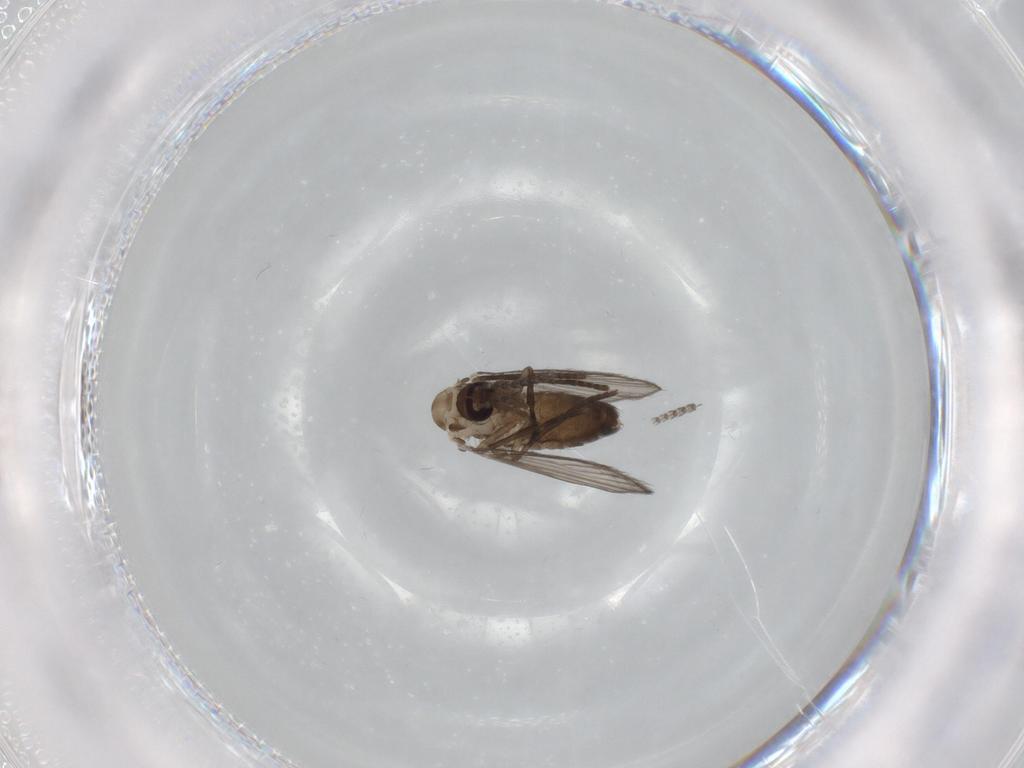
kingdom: Animalia
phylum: Arthropoda
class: Insecta
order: Diptera
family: Psychodidae
